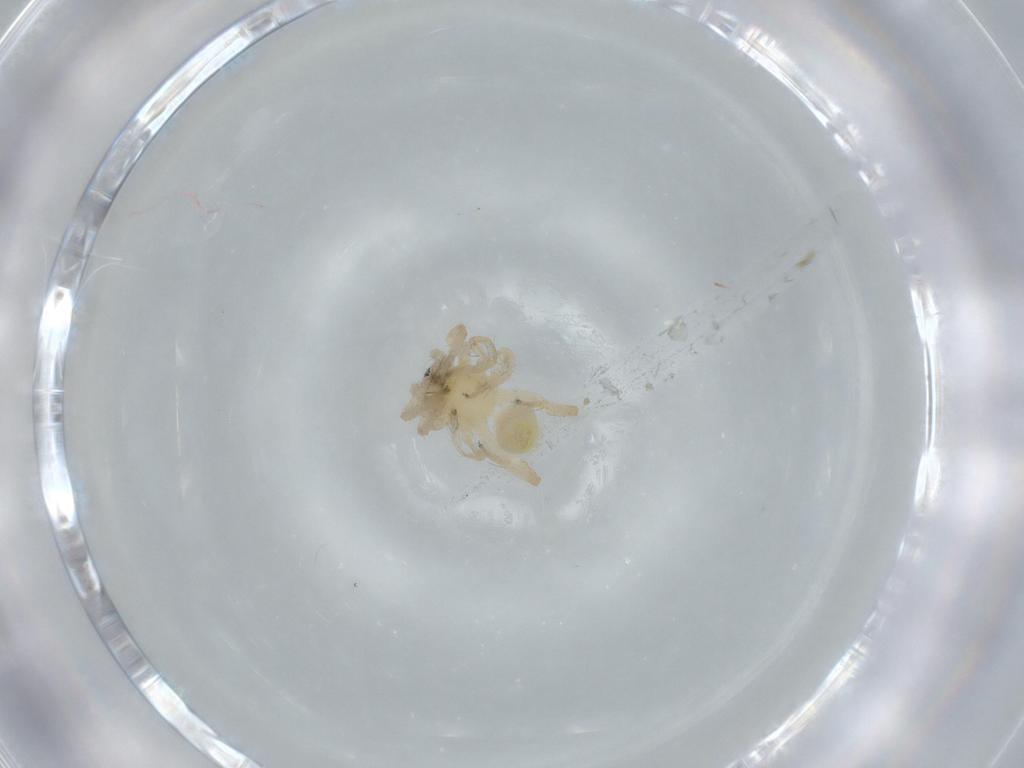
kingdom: Animalia
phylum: Arthropoda
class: Arachnida
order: Araneae
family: Anyphaenidae
